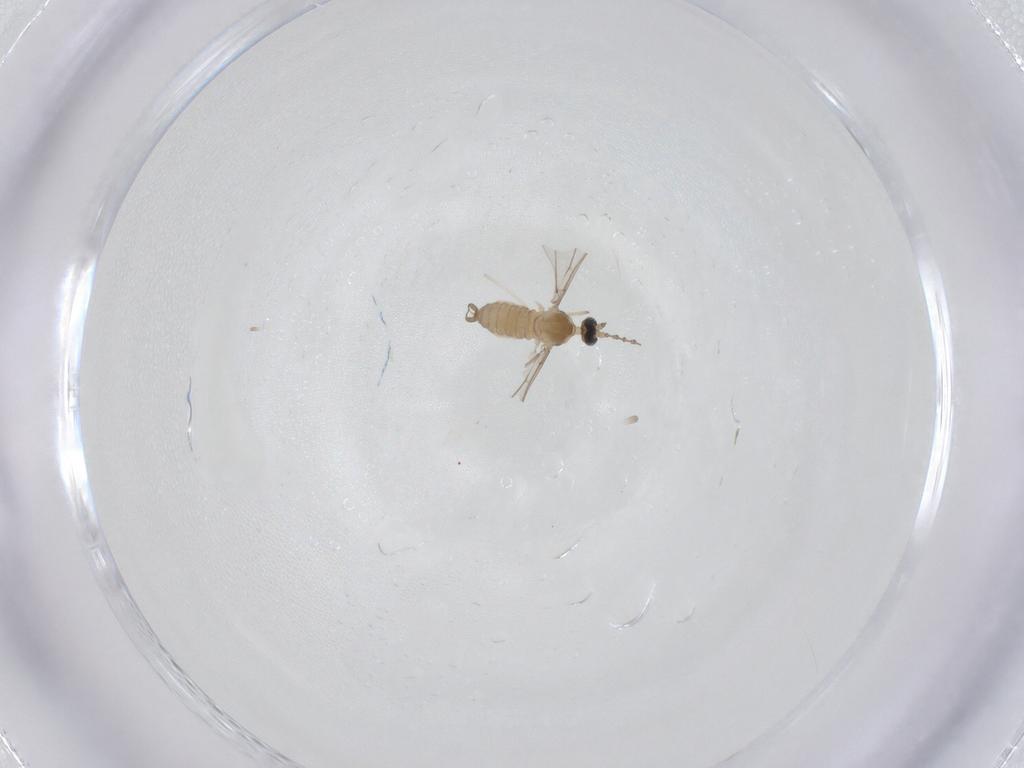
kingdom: Animalia
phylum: Arthropoda
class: Insecta
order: Diptera
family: Cecidomyiidae
